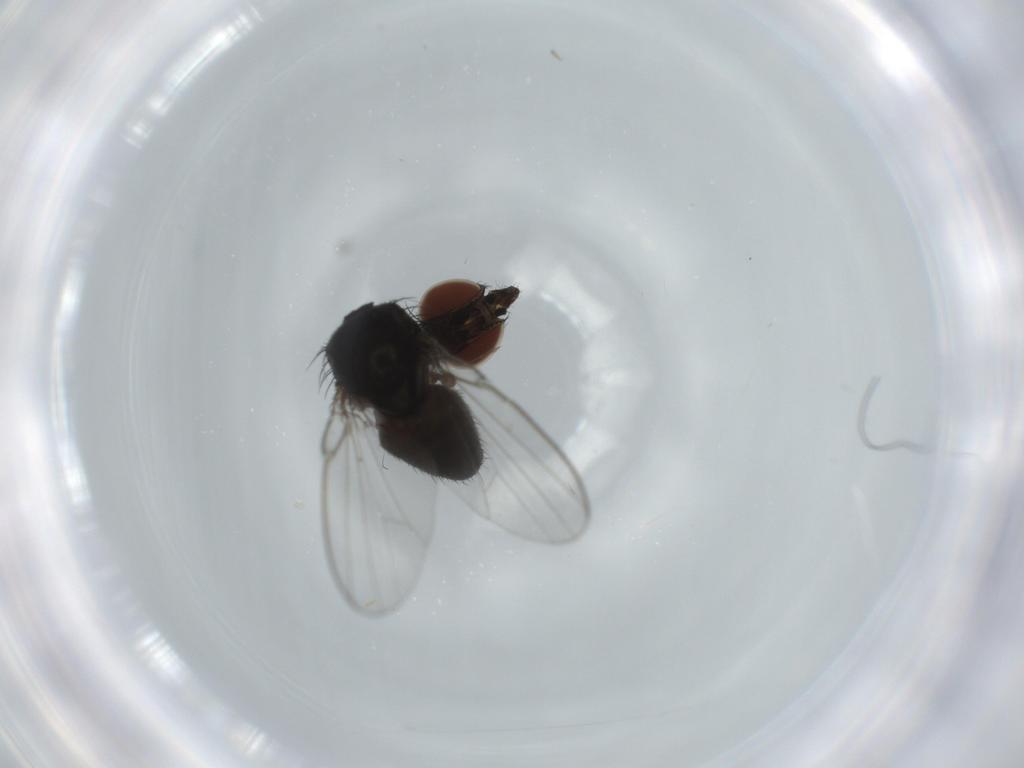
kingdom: Animalia
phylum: Arthropoda
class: Insecta
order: Diptera
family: Milichiidae
